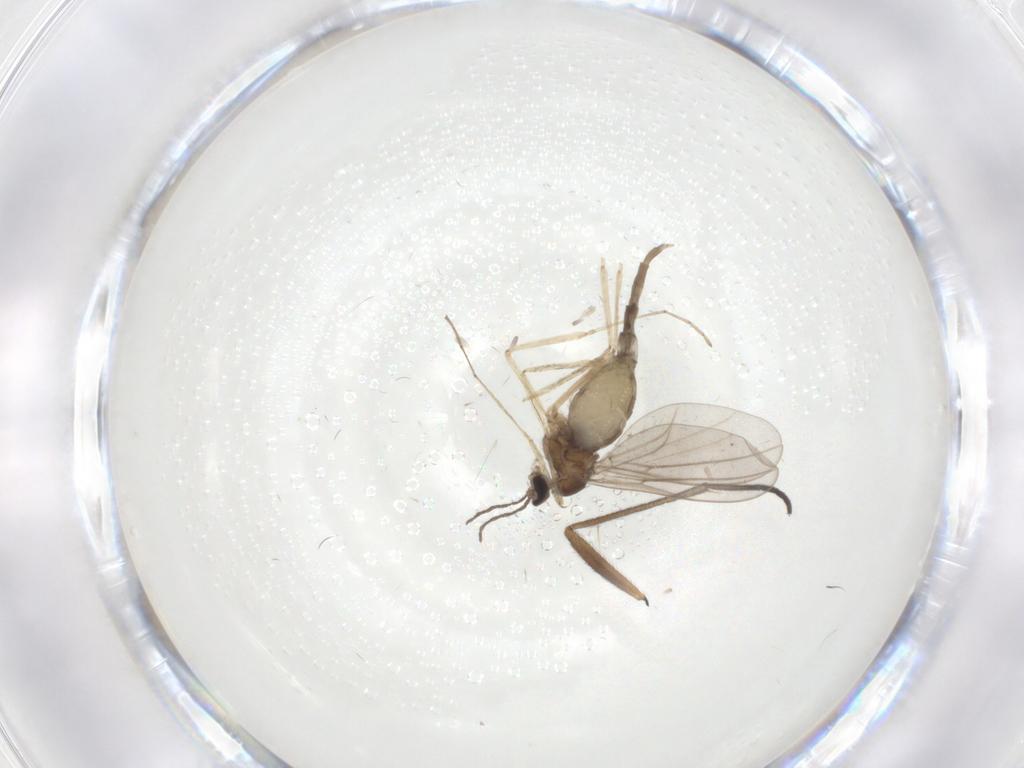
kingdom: Animalia
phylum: Arthropoda
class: Insecta
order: Diptera
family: Cecidomyiidae
